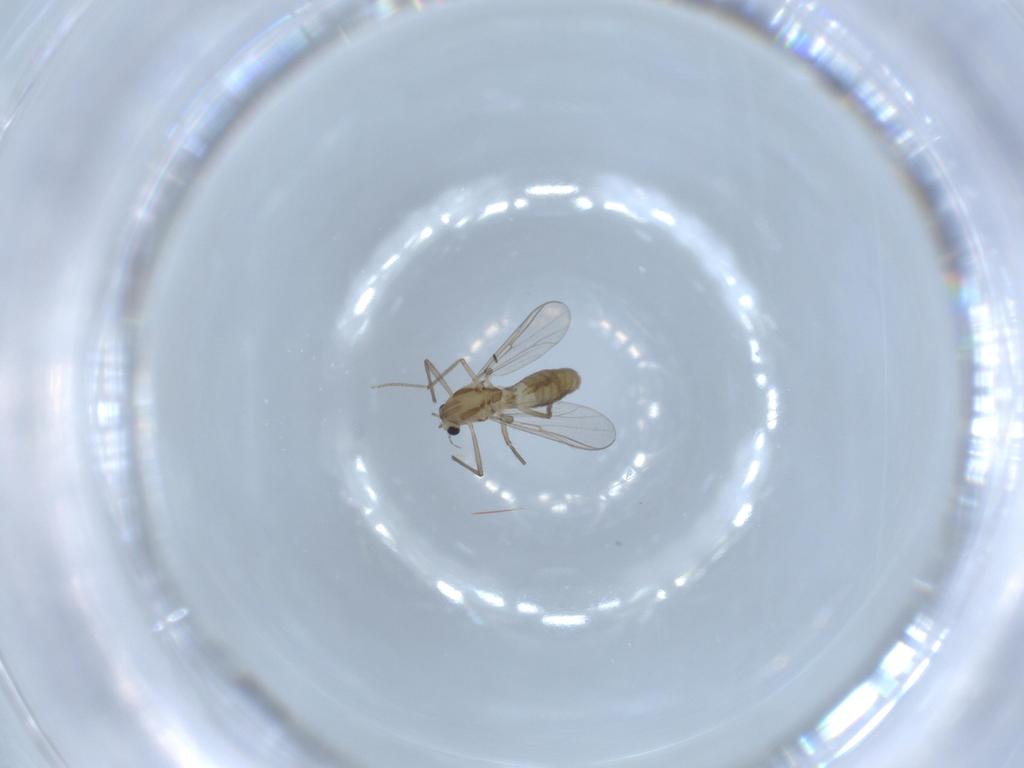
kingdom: Animalia
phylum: Arthropoda
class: Insecta
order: Diptera
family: Chironomidae
